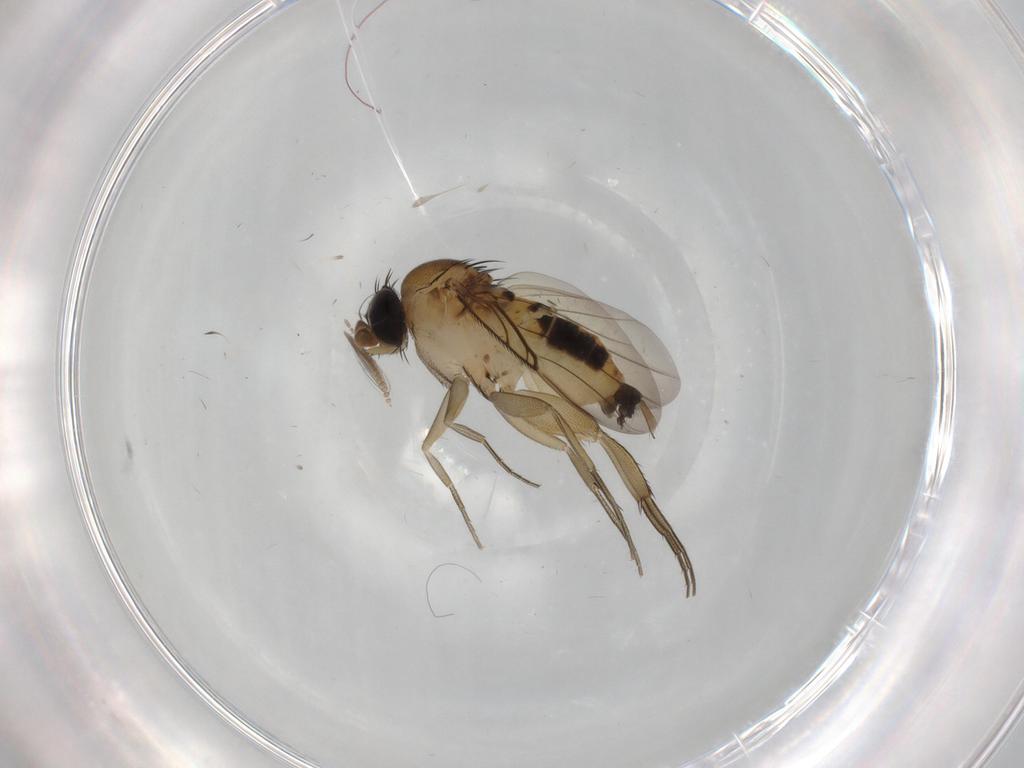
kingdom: Animalia
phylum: Arthropoda
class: Insecta
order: Diptera
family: Phoridae
